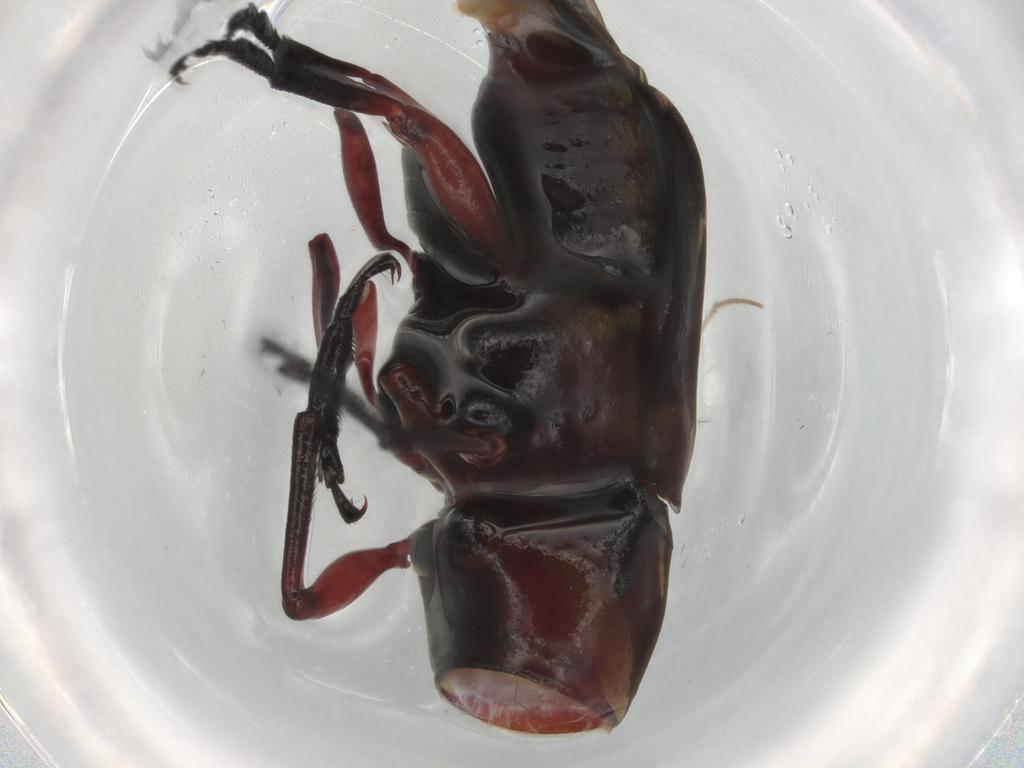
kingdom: Animalia
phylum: Arthropoda
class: Insecta
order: Coleoptera
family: Anthribidae
